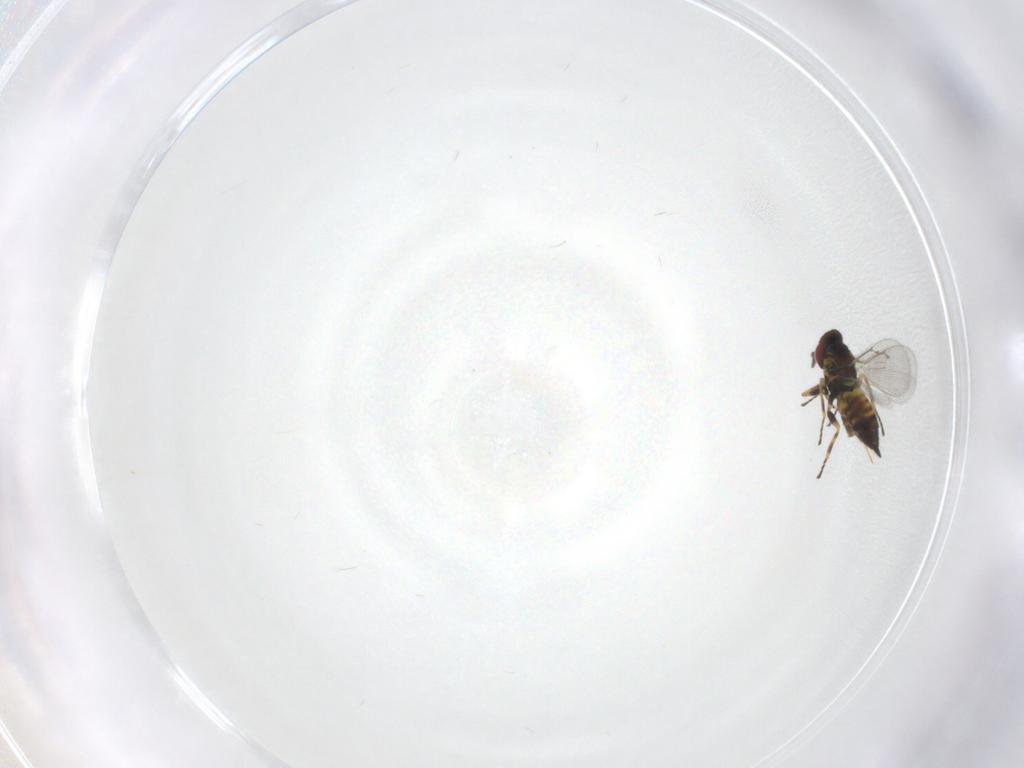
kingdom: Animalia
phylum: Arthropoda
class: Insecta
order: Hymenoptera
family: Eulophidae
